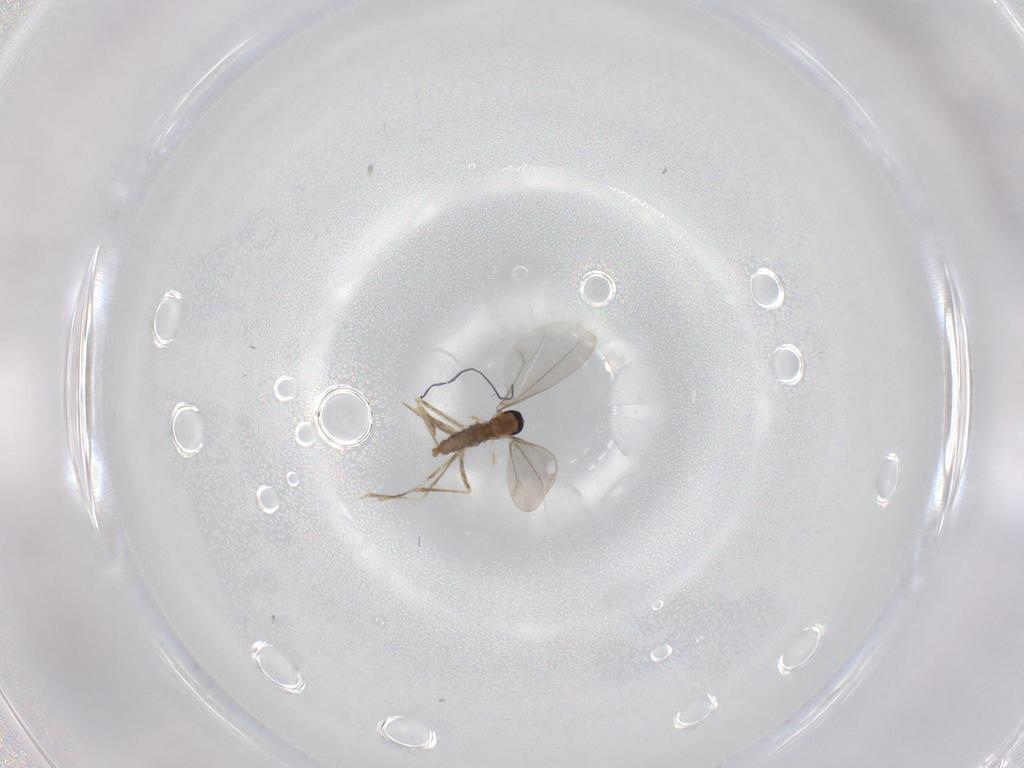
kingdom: Animalia
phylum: Arthropoda
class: Insecta
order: Diptera
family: Cecidomyiidae
